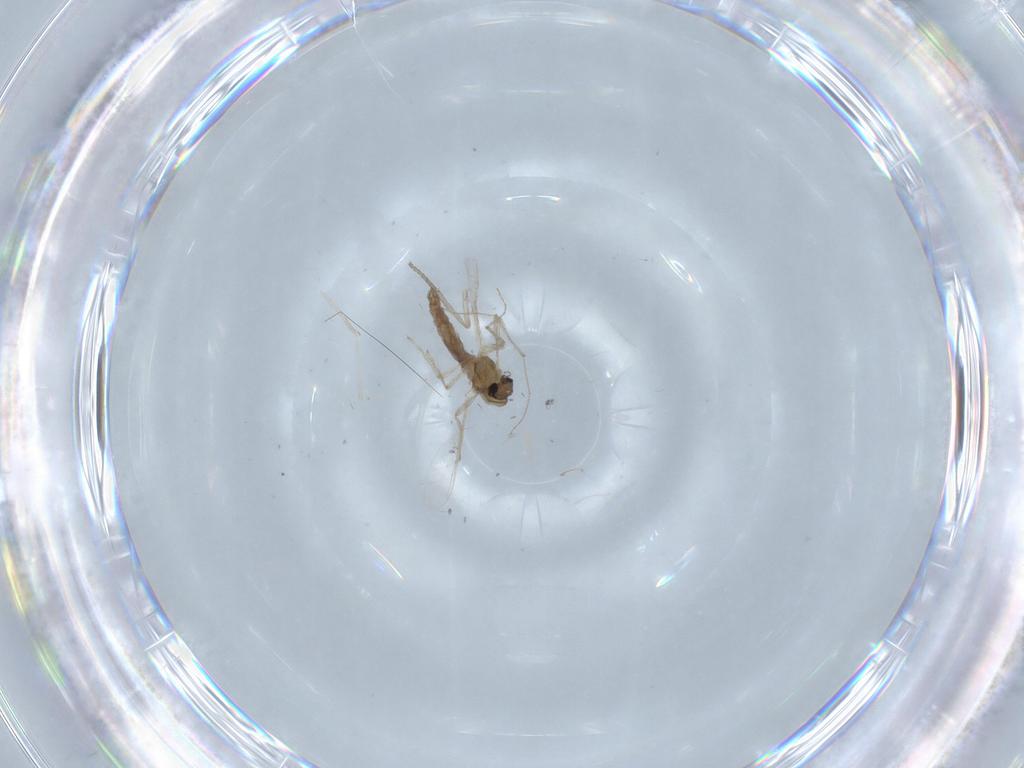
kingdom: Animalia
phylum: Arthropoda
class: Insecta
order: Diptera
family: Chironomidae
